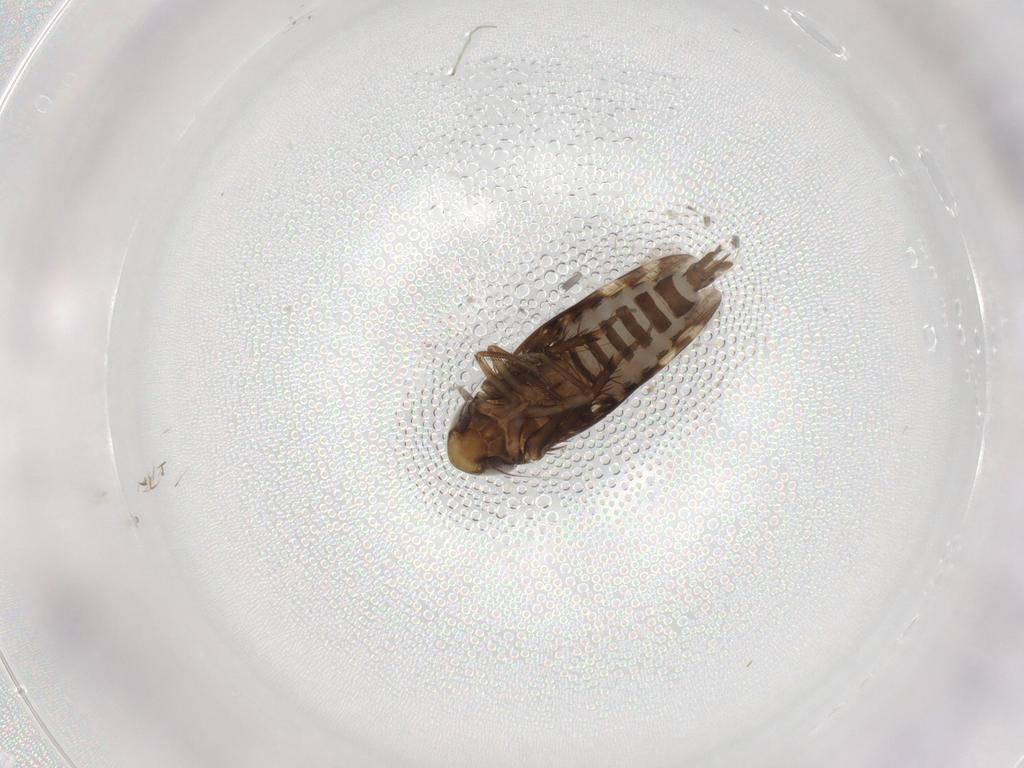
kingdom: Animalia
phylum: Arthropoda
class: Insecta
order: Hemiptera
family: Cicadellidae
